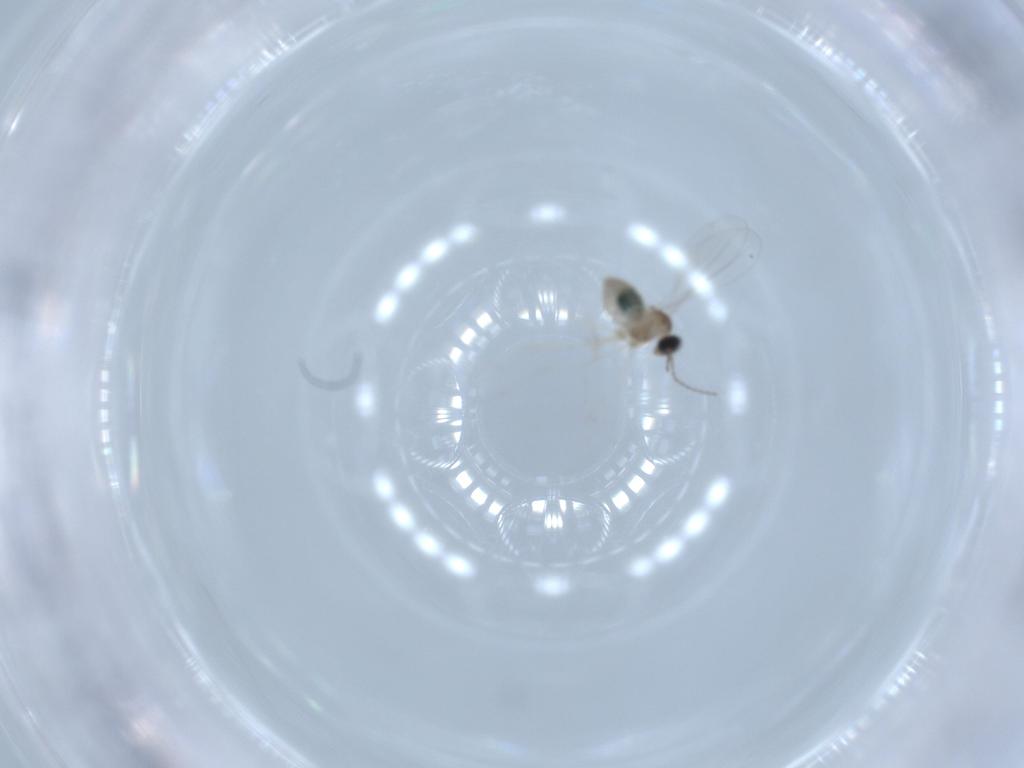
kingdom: Animalia
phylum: Arthropoda
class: Insecta
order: Diptera
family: Cecidomyiidae
